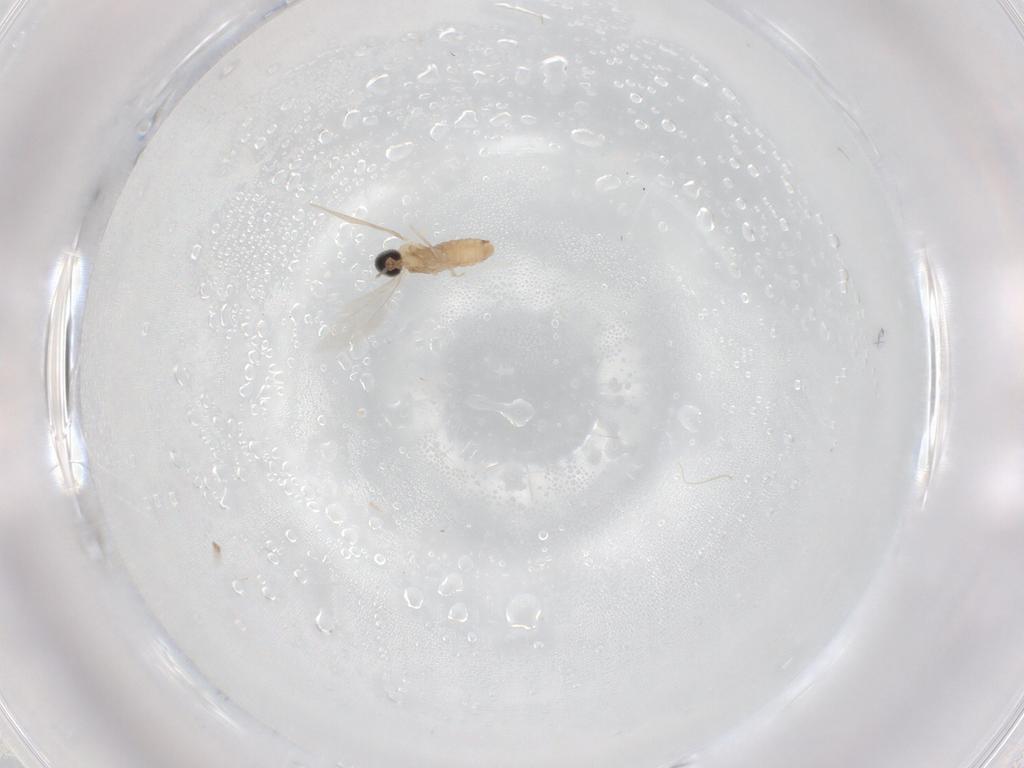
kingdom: Animalia
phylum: Arthropoda
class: Insecta
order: Diptera
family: Cecidomyiidae
